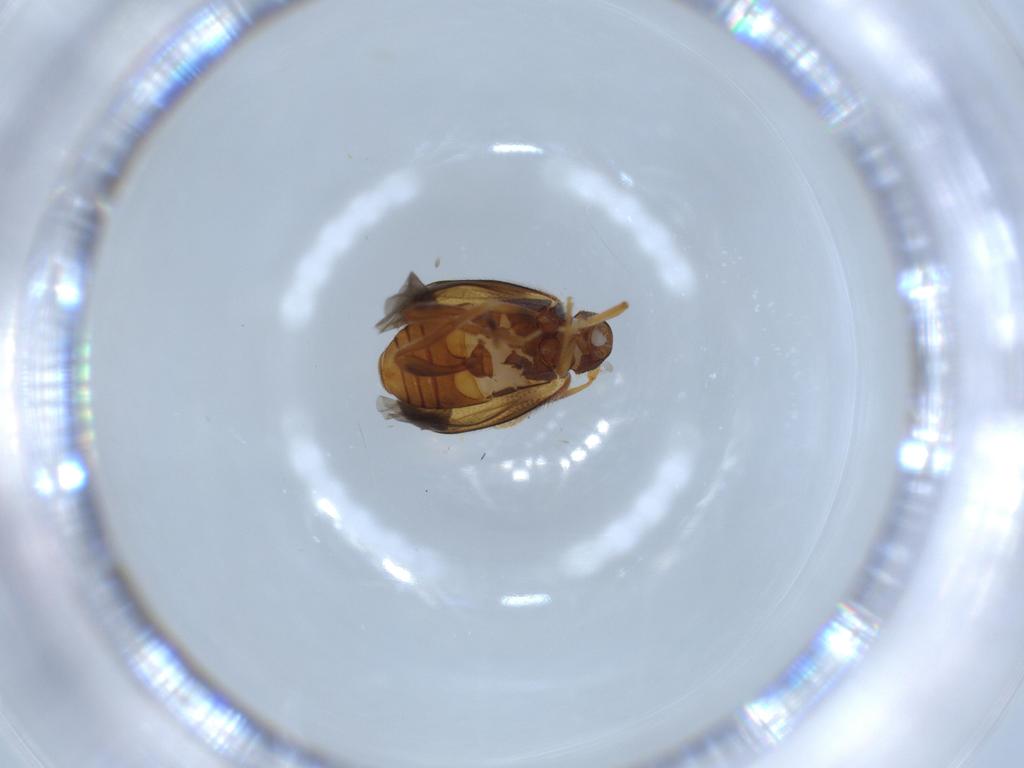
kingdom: Animalia
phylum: Arthropoda
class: Insecta
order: Coleoptera
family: Aderidae
